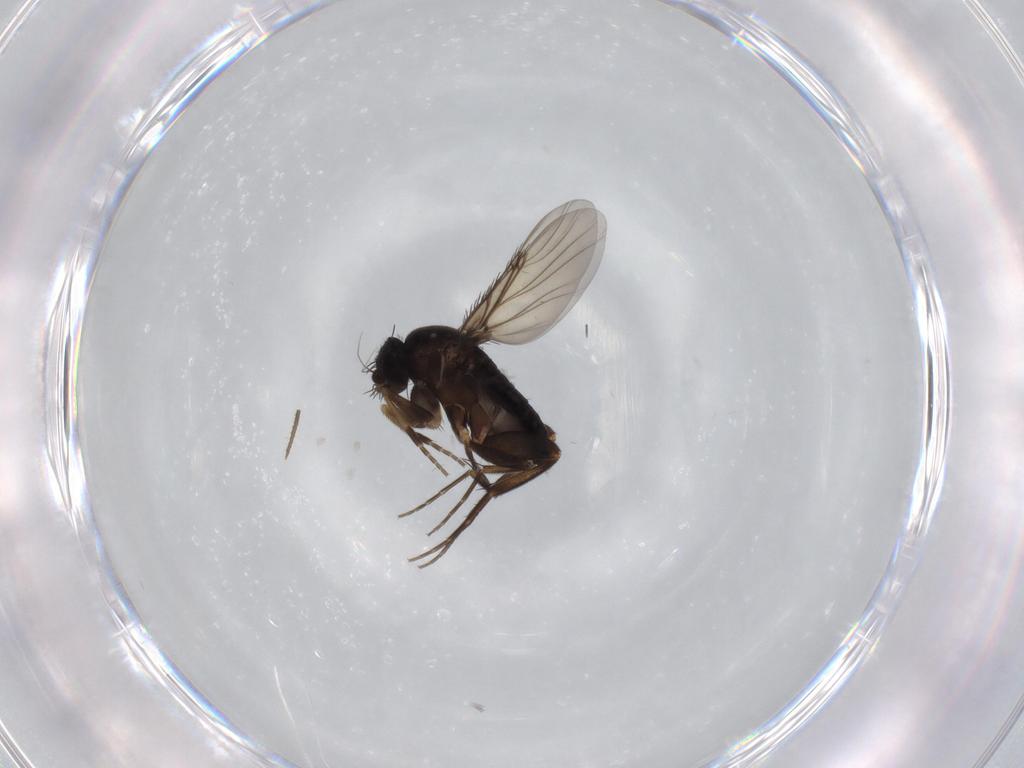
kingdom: Animalia
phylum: Arthropoda
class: Insecta
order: Diptera
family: Phoridae
